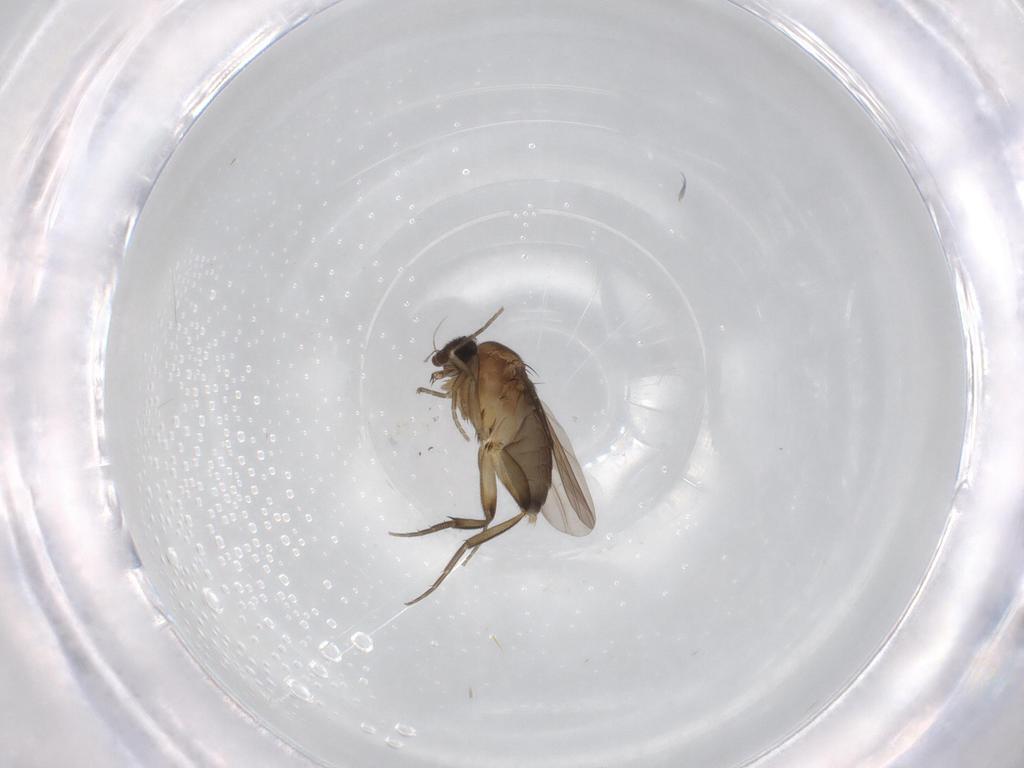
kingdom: Animalia
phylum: Arthropoda
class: Insecta
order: Diptera
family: Phoridae
